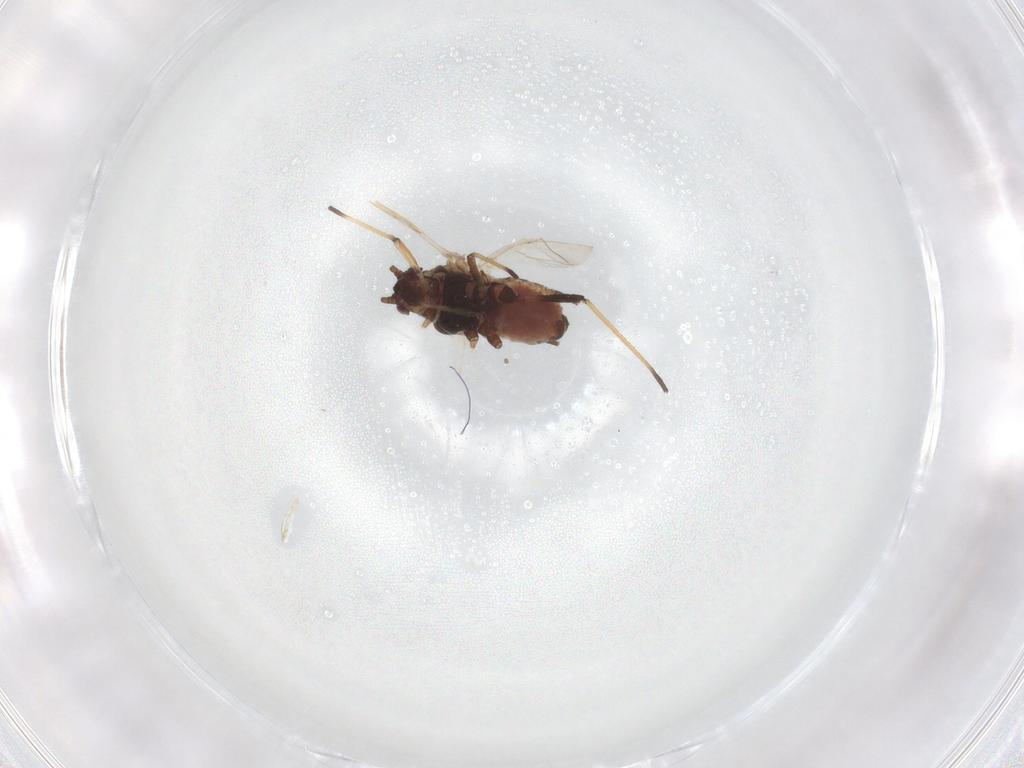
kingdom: Animalia
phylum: Arthropoda
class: Insecta
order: Hemiptera
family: Aphididae
